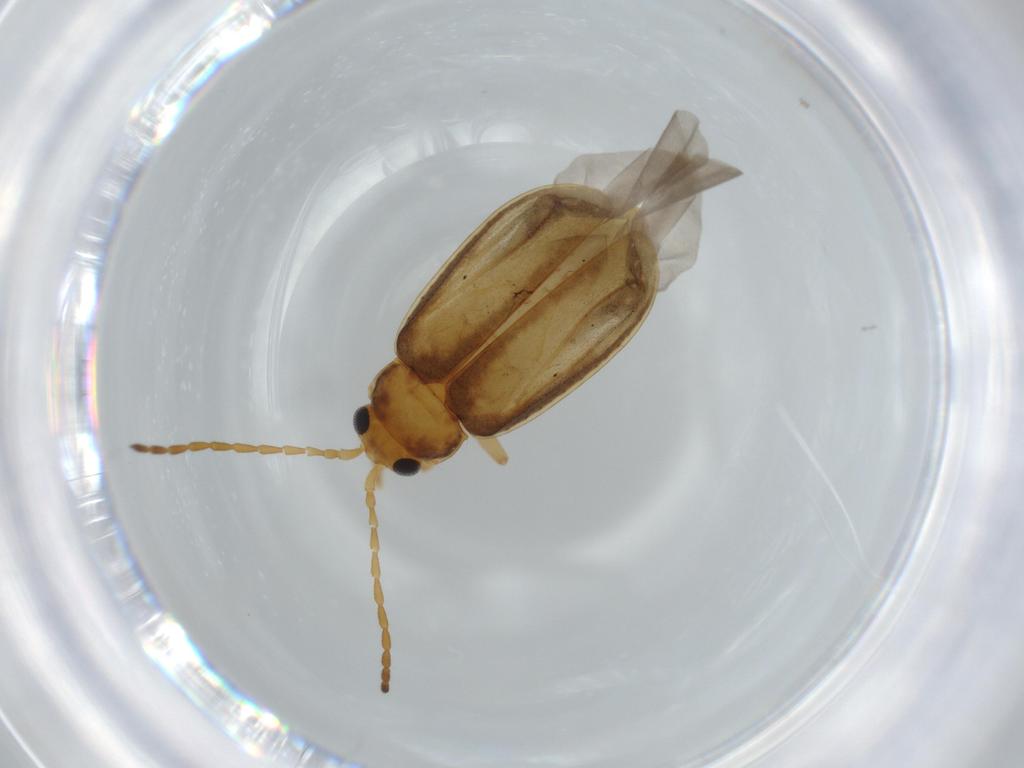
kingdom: Animalia
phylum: Arthropoda
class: Insecta
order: Coleoptera
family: Chrysomelidae
